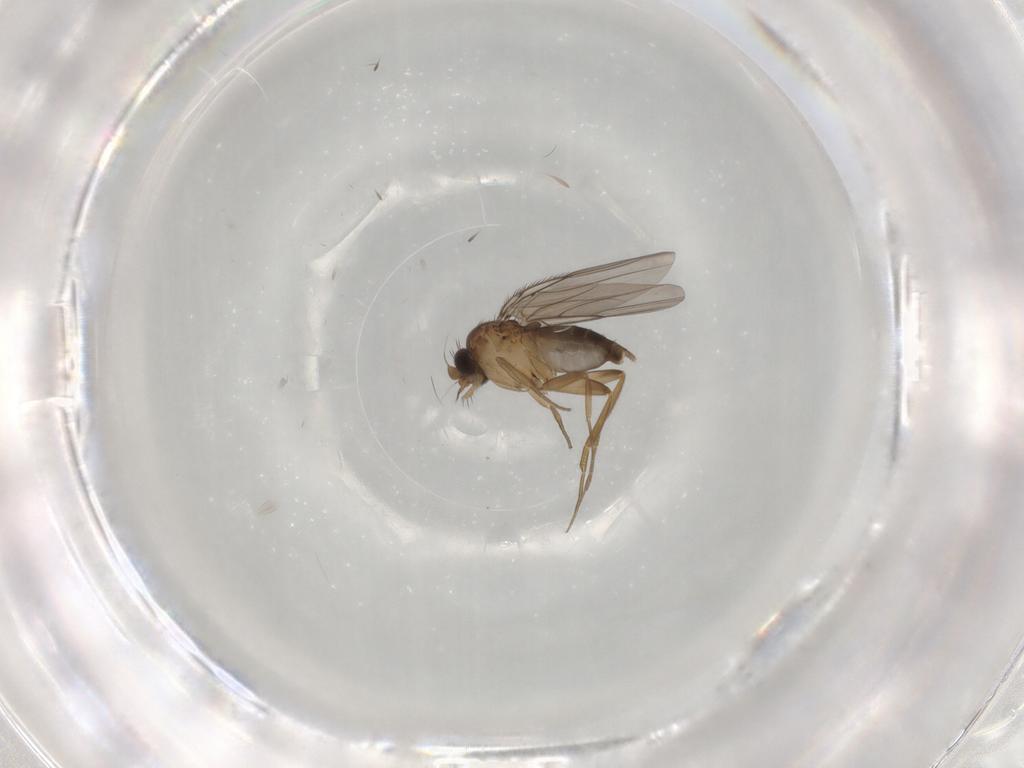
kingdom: Animalia
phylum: Arthropoda
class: Insecta
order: Diptera
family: Phoridae
